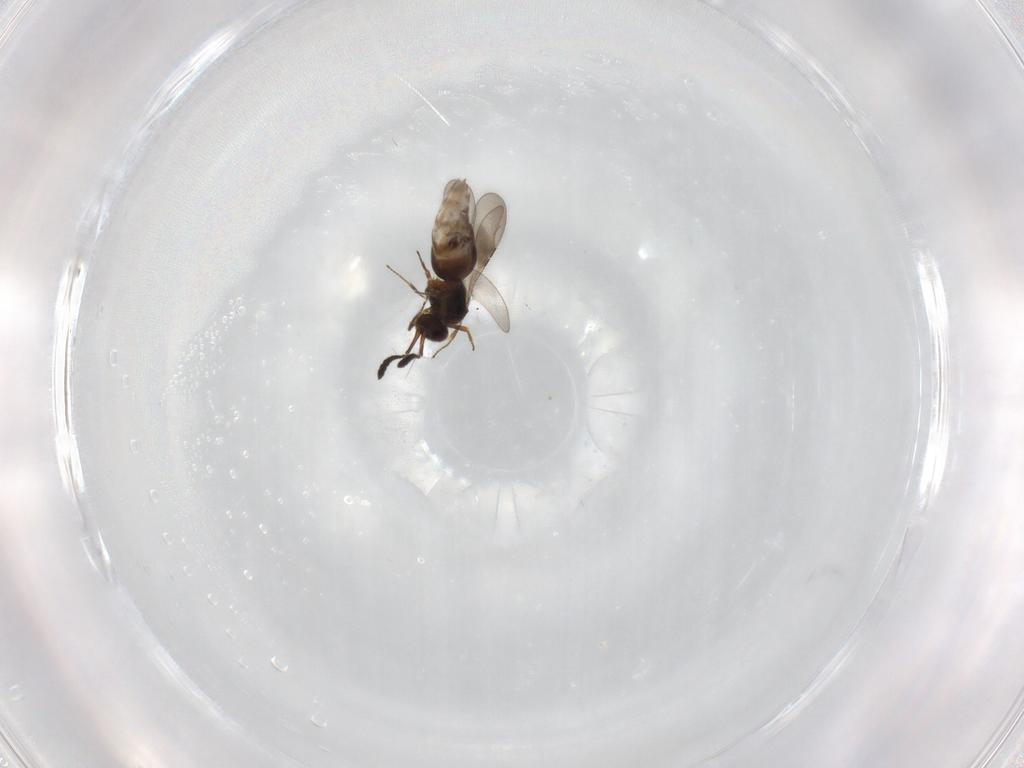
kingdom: Animalia
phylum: Arthropoda
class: Insecta
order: Hymenoptera
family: Ceraphronidae
